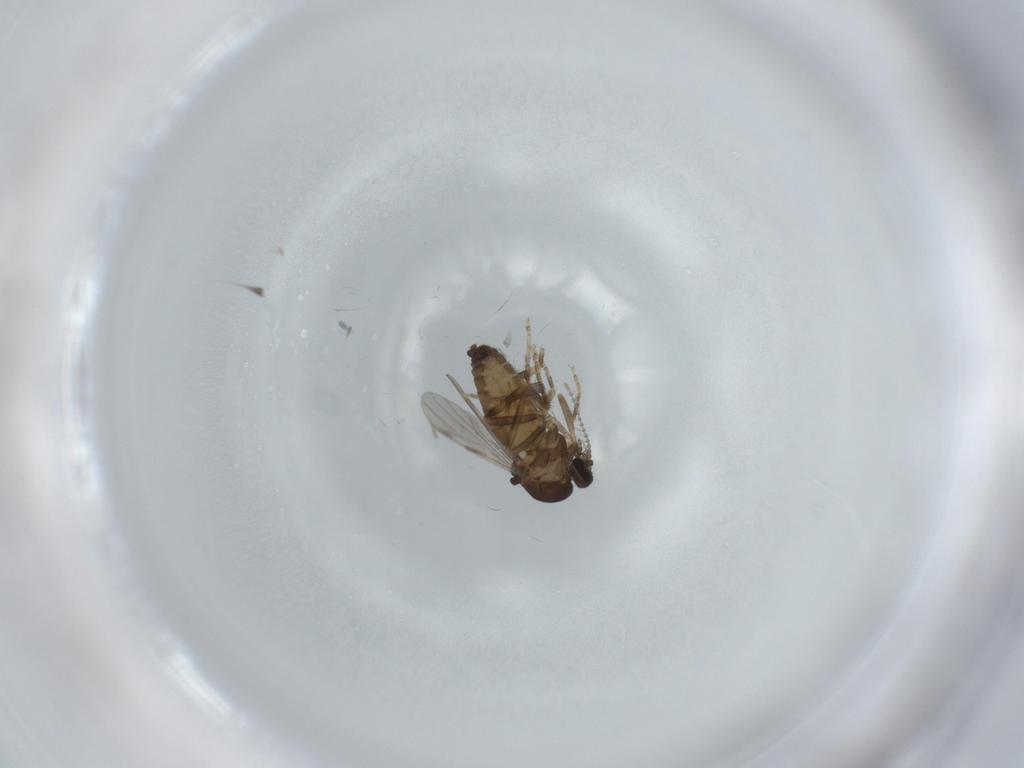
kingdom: Animalia
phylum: Arthropoda
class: Insecta
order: Diptera
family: Ceratopogonidae
